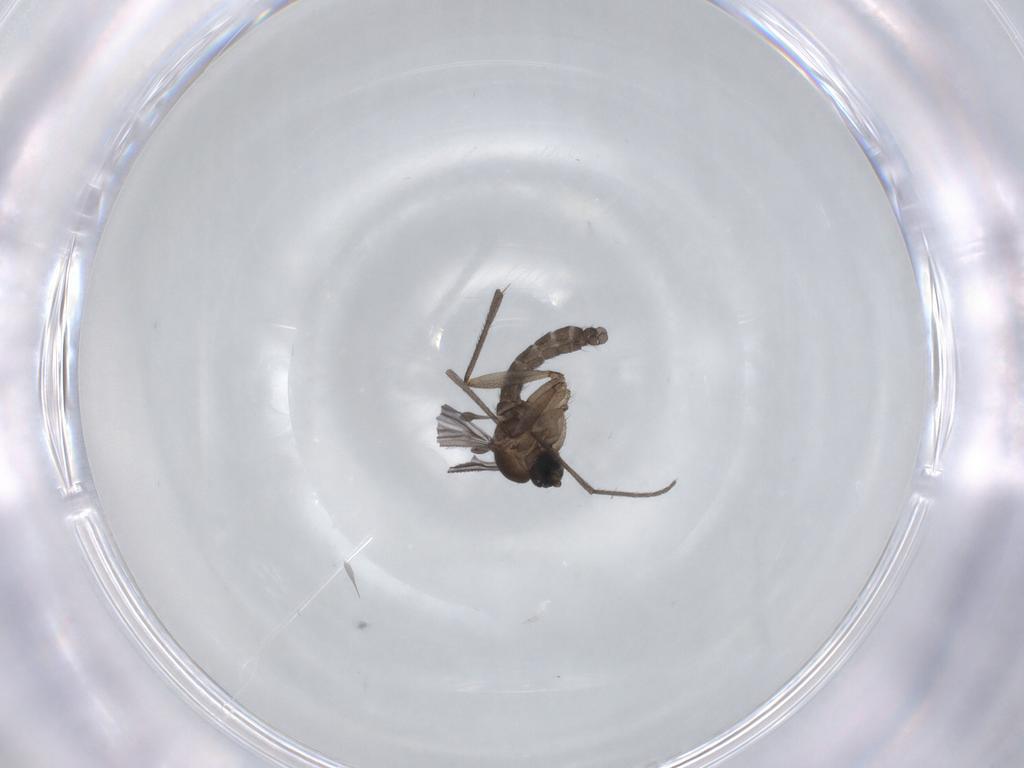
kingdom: Animalia
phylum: Arthropoda
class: Insecta
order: Diptera
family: Sciaridae
